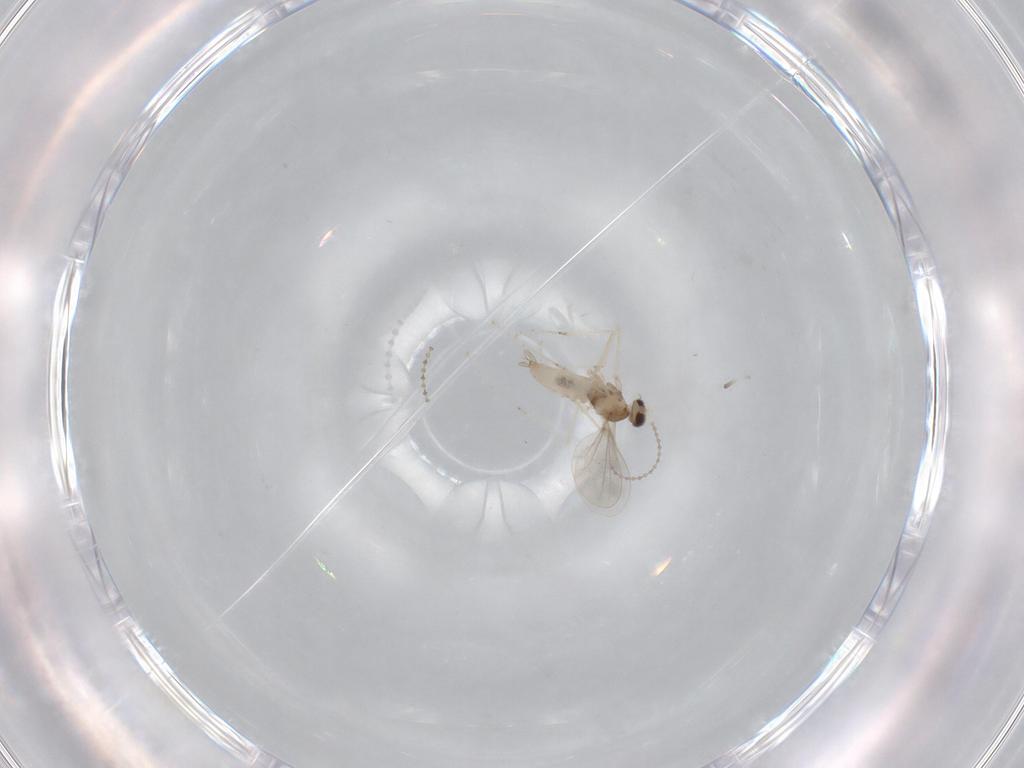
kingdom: Animalia
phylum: Arthropoda
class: Insecta
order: Diptera
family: Cecidomyiidae
